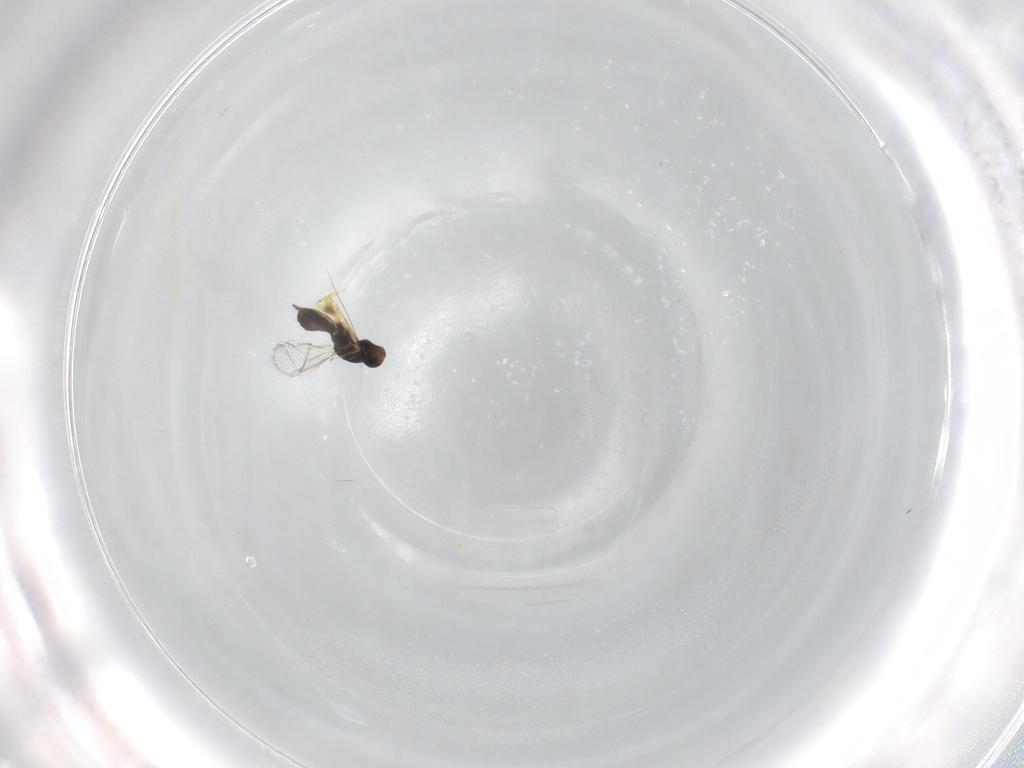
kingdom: Animalia
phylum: Arthropoda
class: Insecta
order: Hymenoptera
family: Eulophidae
